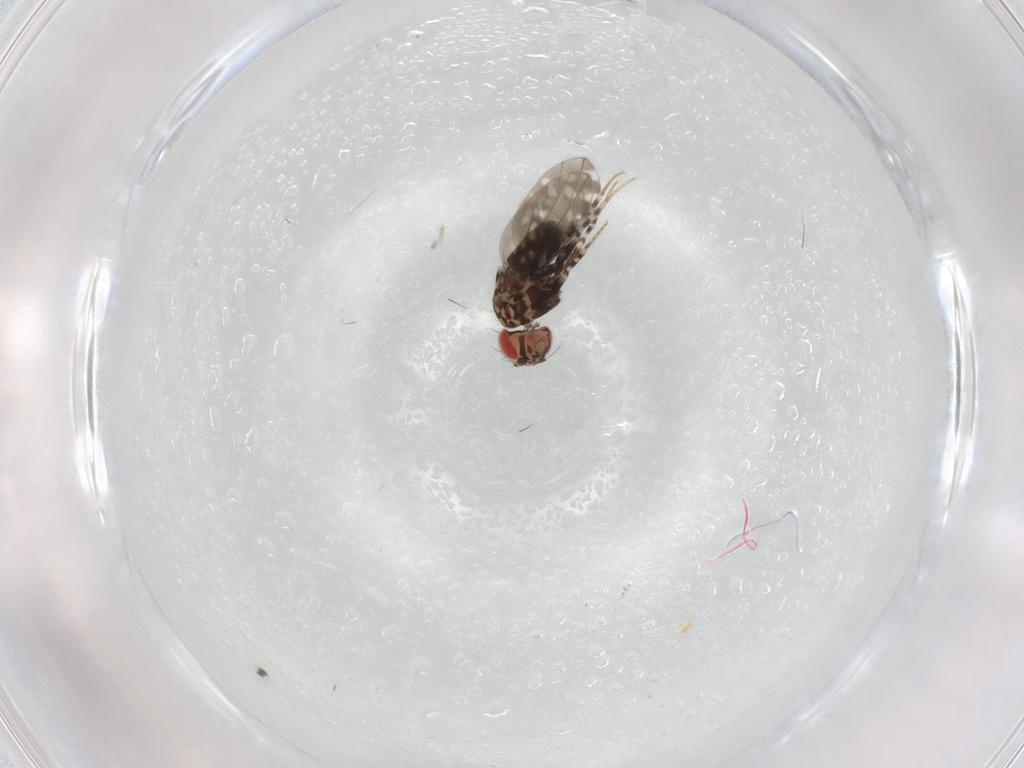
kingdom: Animalia
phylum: Arthropoda
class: Insecta
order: Diptera
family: Drosophilidae
